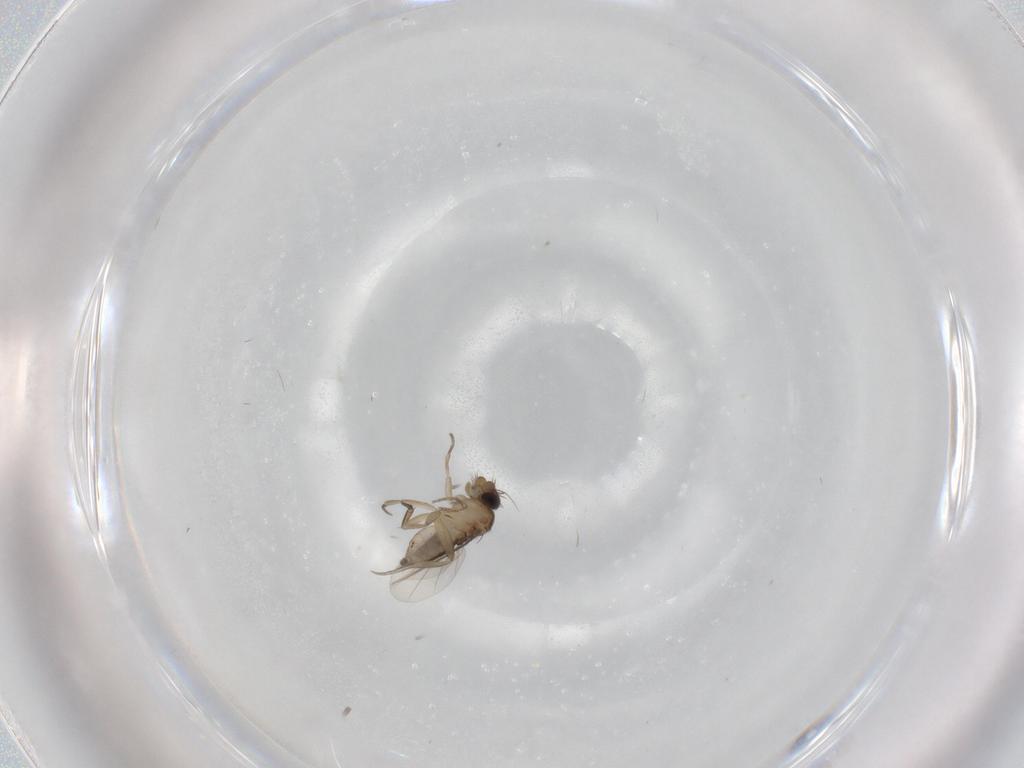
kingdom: Animalia
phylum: Arthropoda
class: Insecta
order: Diptera
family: Phoridae
